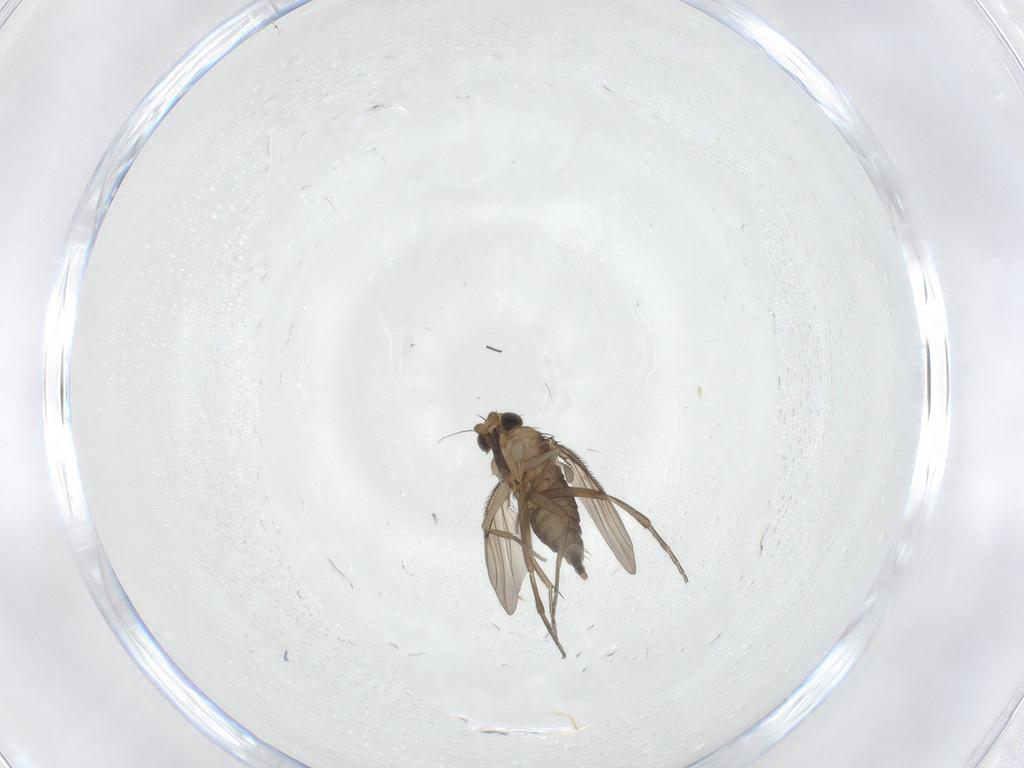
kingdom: Animalia
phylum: Arthropoda
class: Insecta
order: Diptera
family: Phoridae
